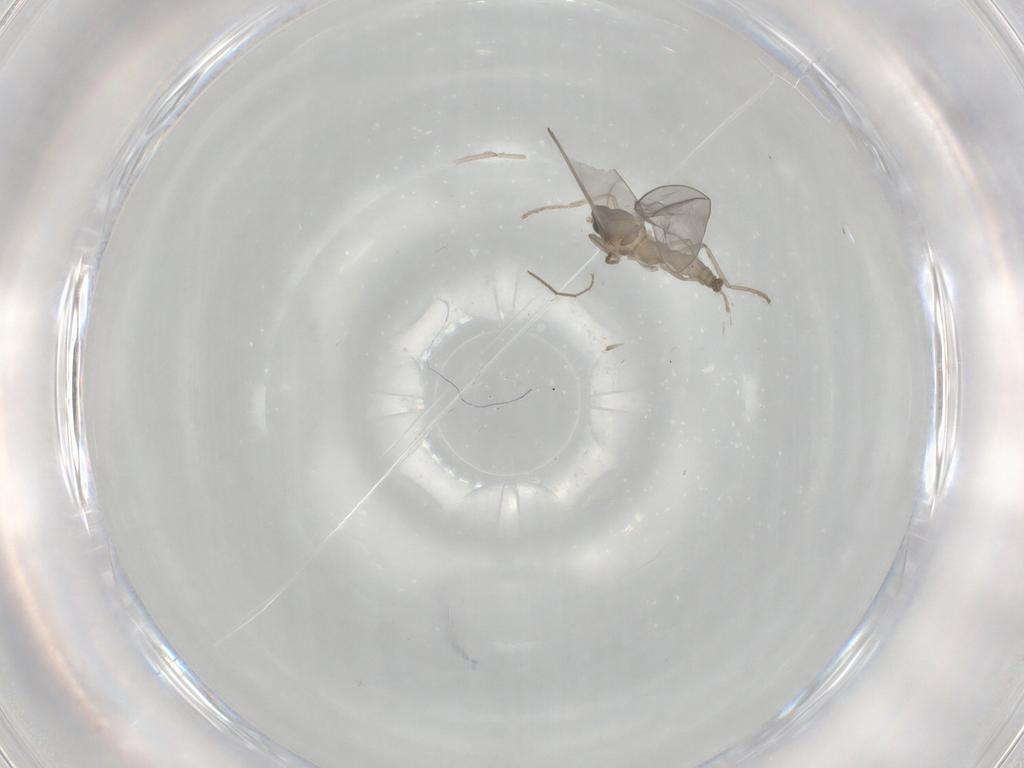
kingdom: Animalia
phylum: Arthropoda
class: Insecta
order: Diptera
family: Cecidomyiidae
